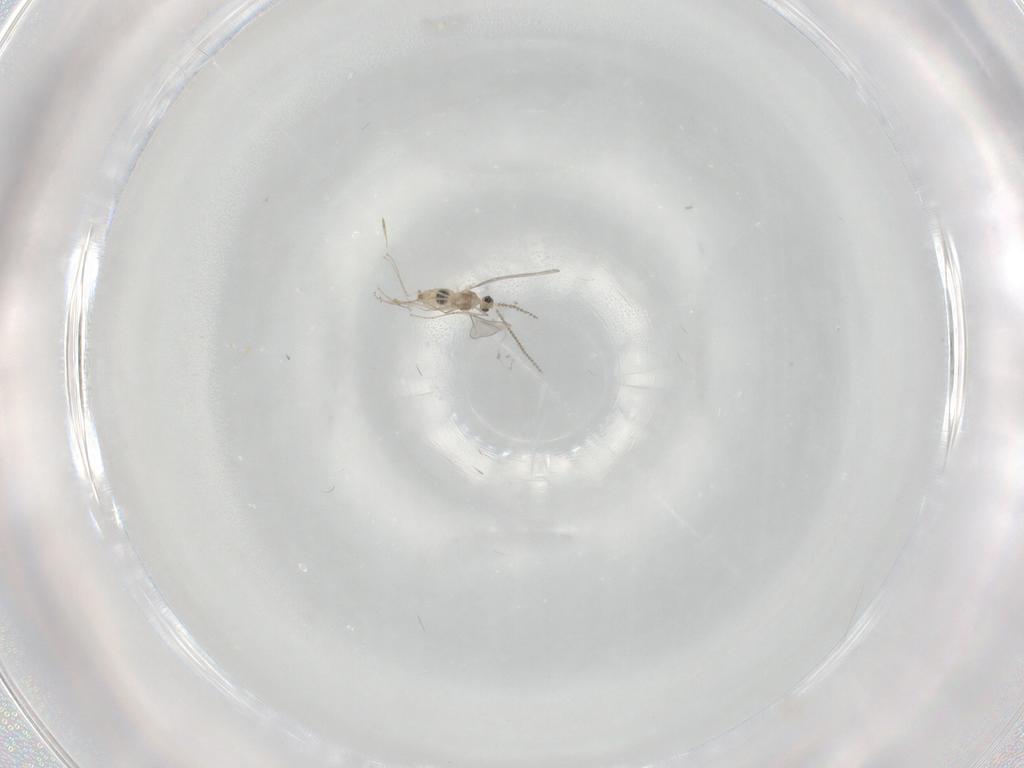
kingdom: Animalia
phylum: Arthropoda
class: Insecta
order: Diptera
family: Cecidomyiidae
